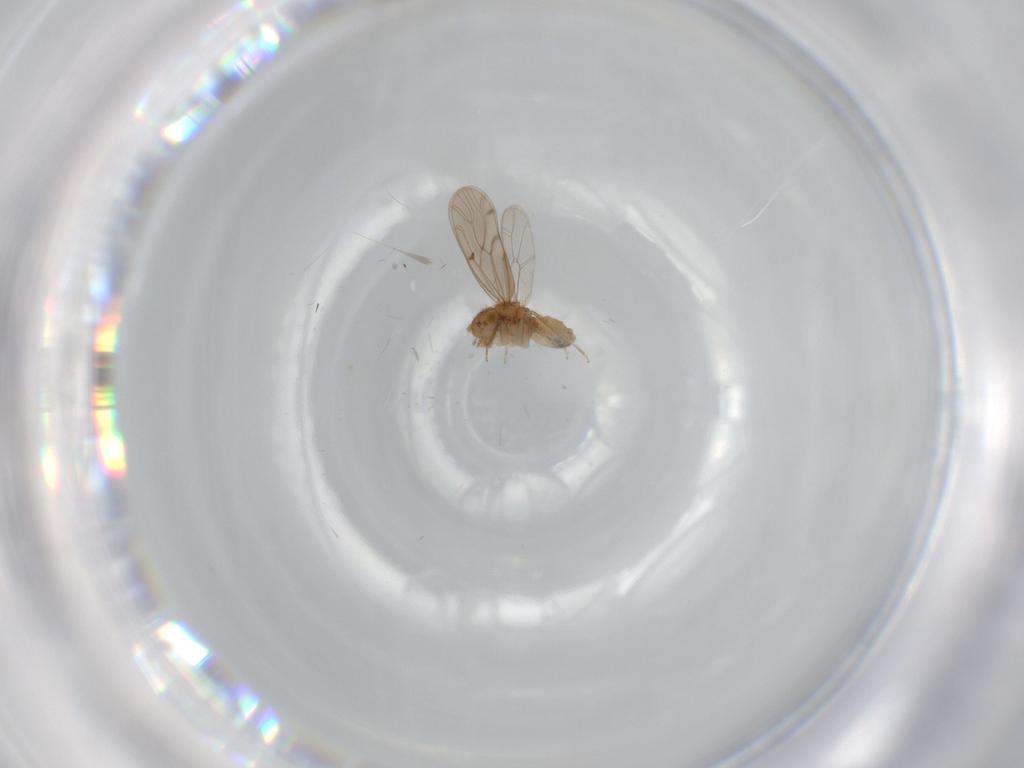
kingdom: Animalia
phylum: Arthropoda
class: Insecta
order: Psocodea
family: Ectopsocidae
